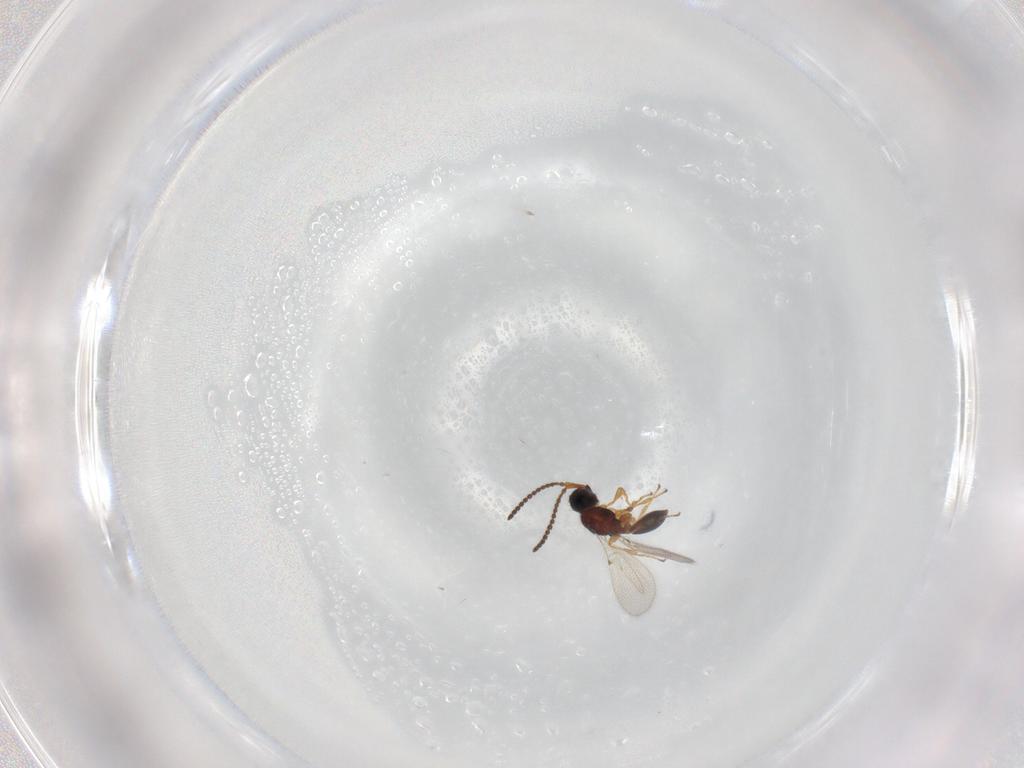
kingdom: Animalia
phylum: Arthropoda
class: Insecta
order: Hymenoptera
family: Diapriidae
